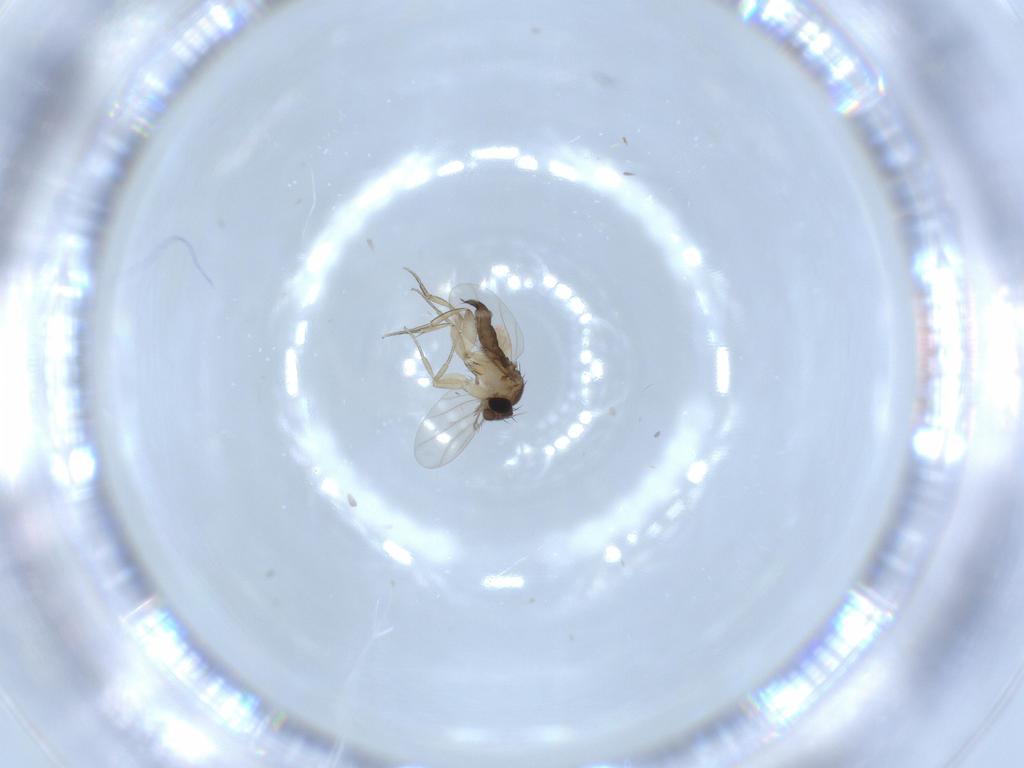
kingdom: Animalia
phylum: Arthropoda
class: Insecta
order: Diptera
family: Phoridae
